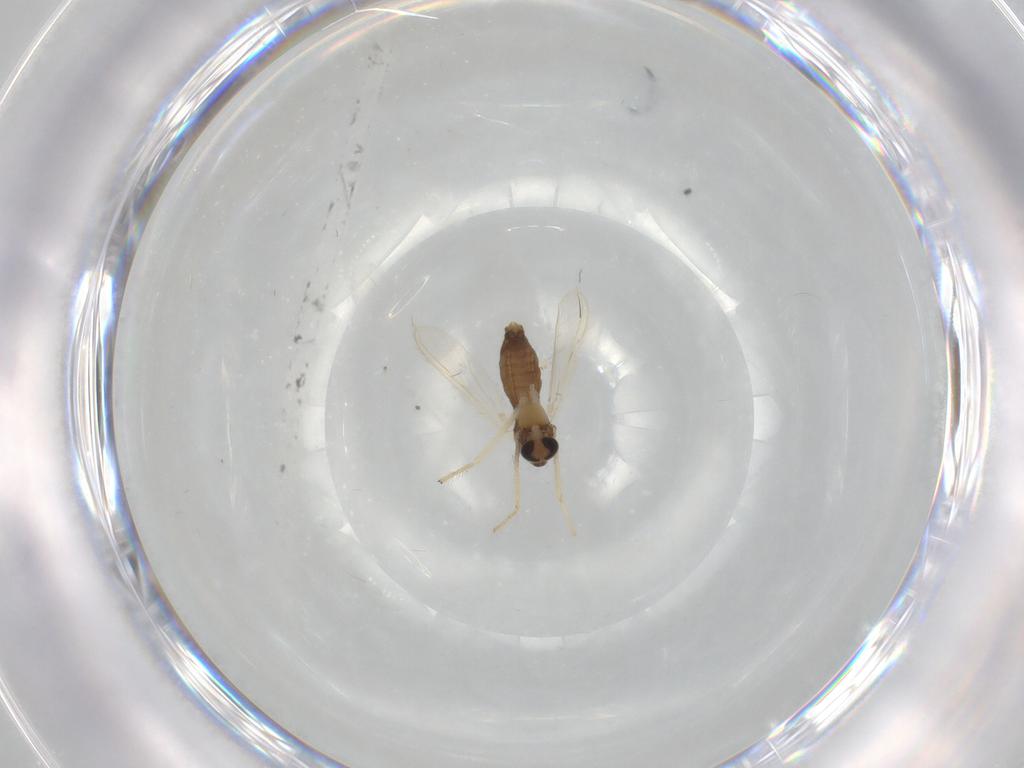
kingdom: Animalia
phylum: Arthropoda
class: Insecta
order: Diptera
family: Chironomidae
